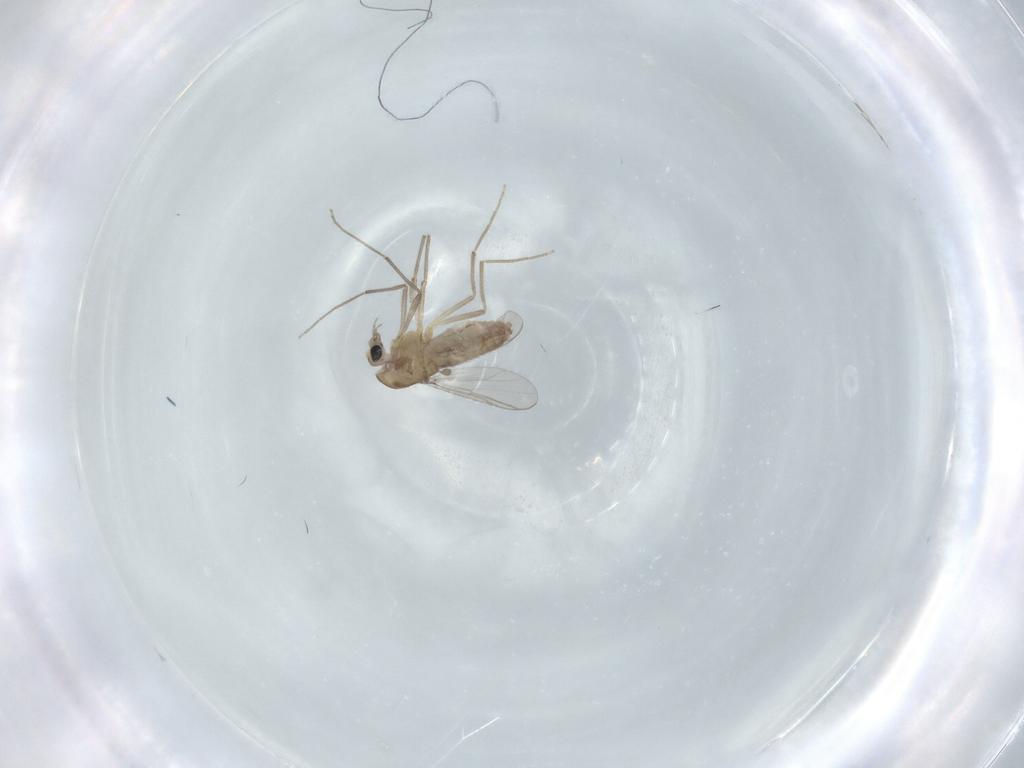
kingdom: Animalia
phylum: Arthropoda
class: Insecta
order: Diptera
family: Chironomidae
